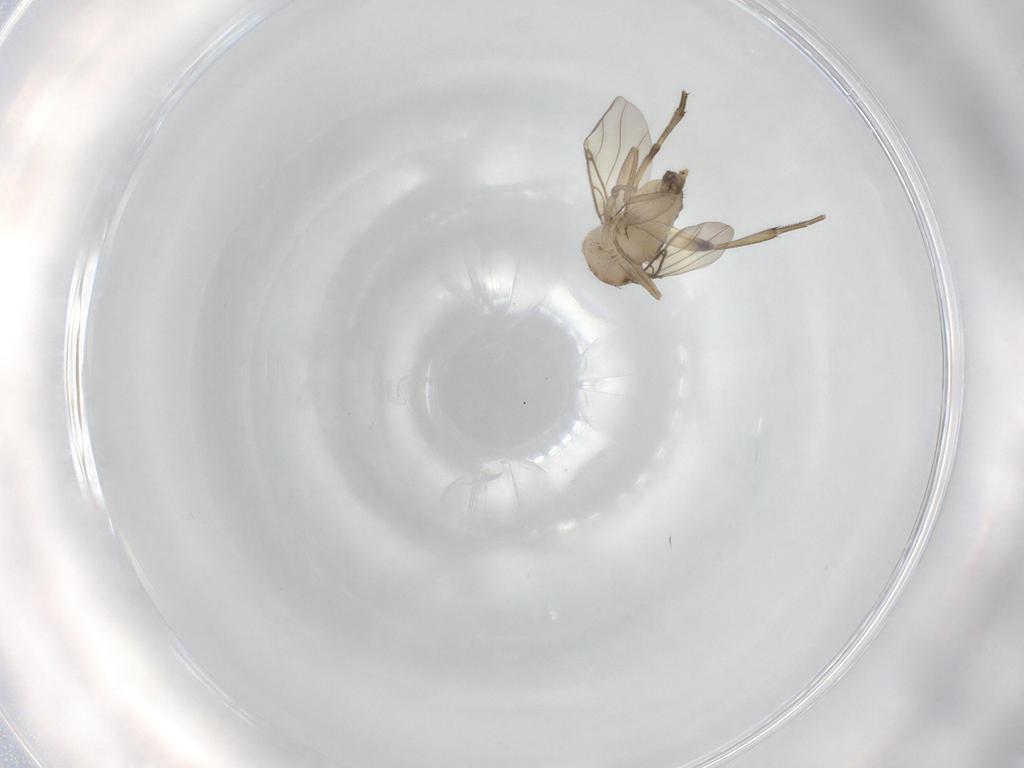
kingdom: Animalia
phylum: Arthropoda
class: Insecta
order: Diptera
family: Phoridae
